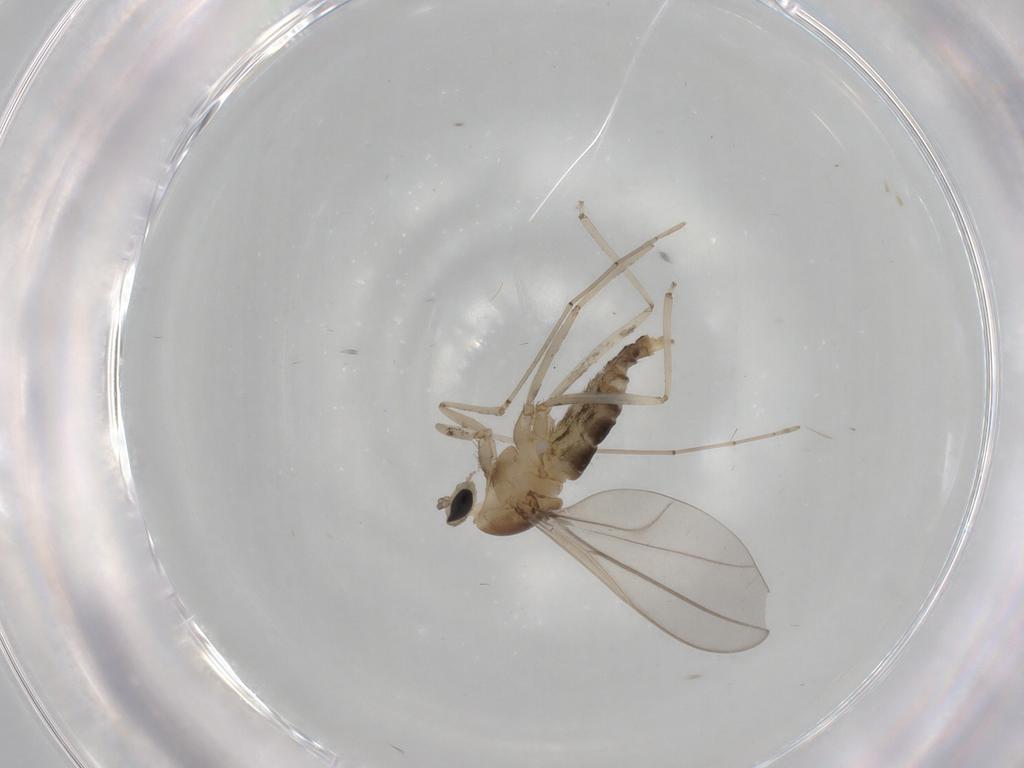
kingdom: Animalia
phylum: Arthropoda
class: Insecta
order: Diptera
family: Cecidomyiidae
